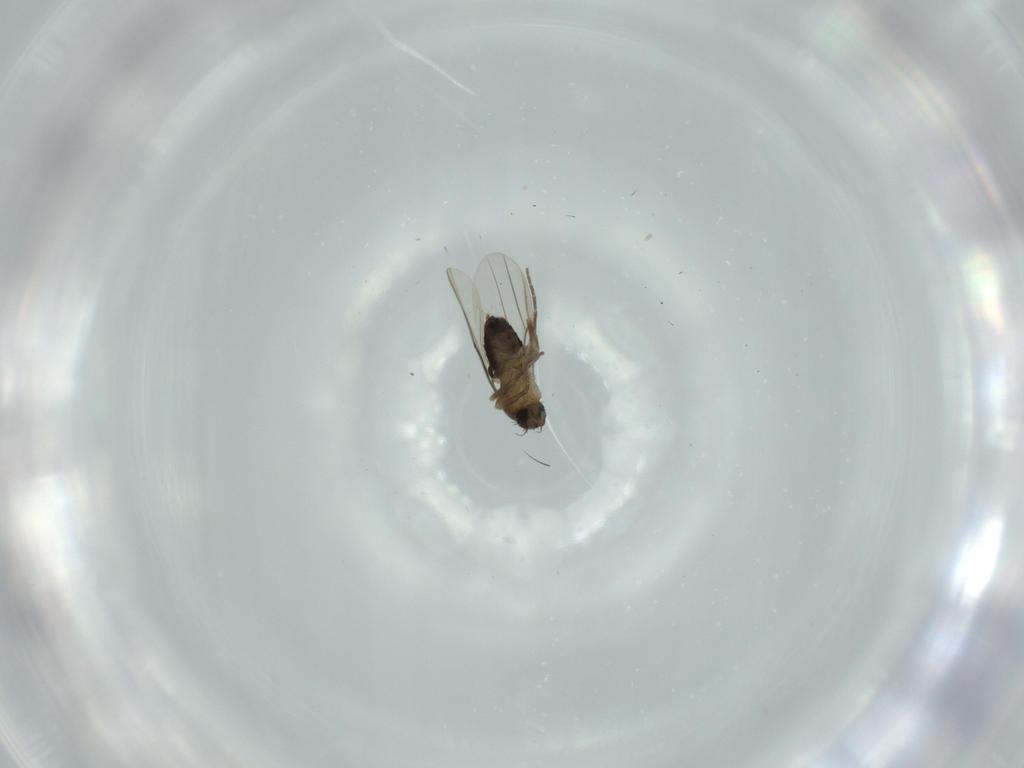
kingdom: Animalia
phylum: Arthropoda
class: Insecta
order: Diptera
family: Phoridae
